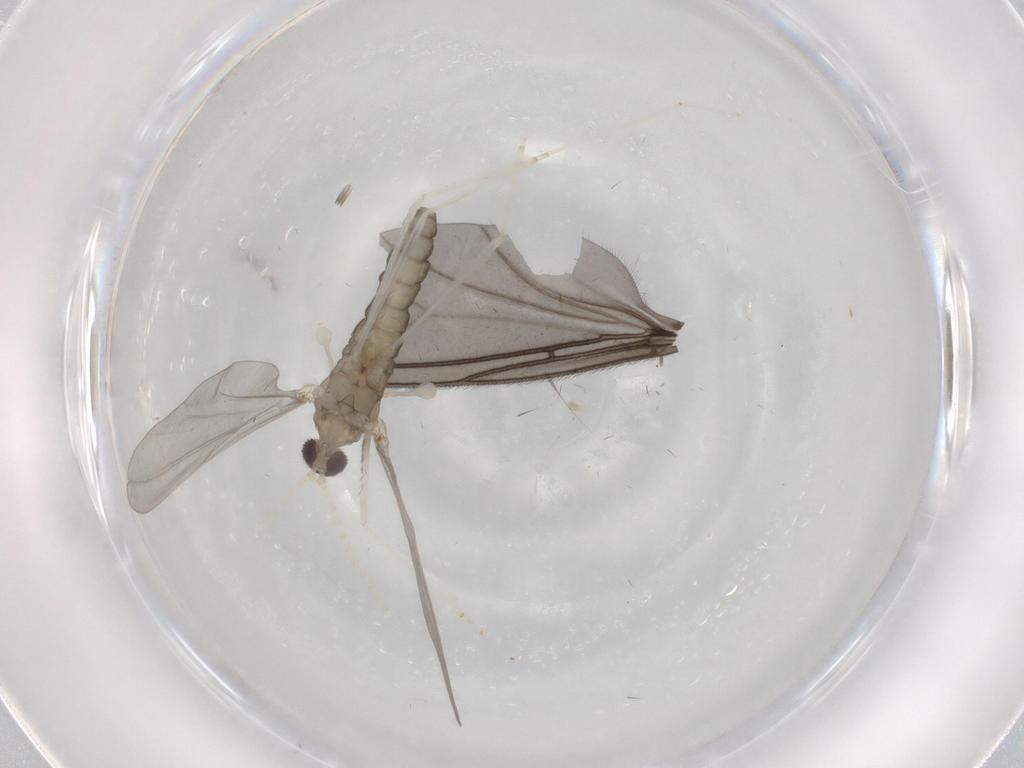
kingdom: Animalia
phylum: Arthropoda
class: Insecta
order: Diptera
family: Cecidomyiidae
